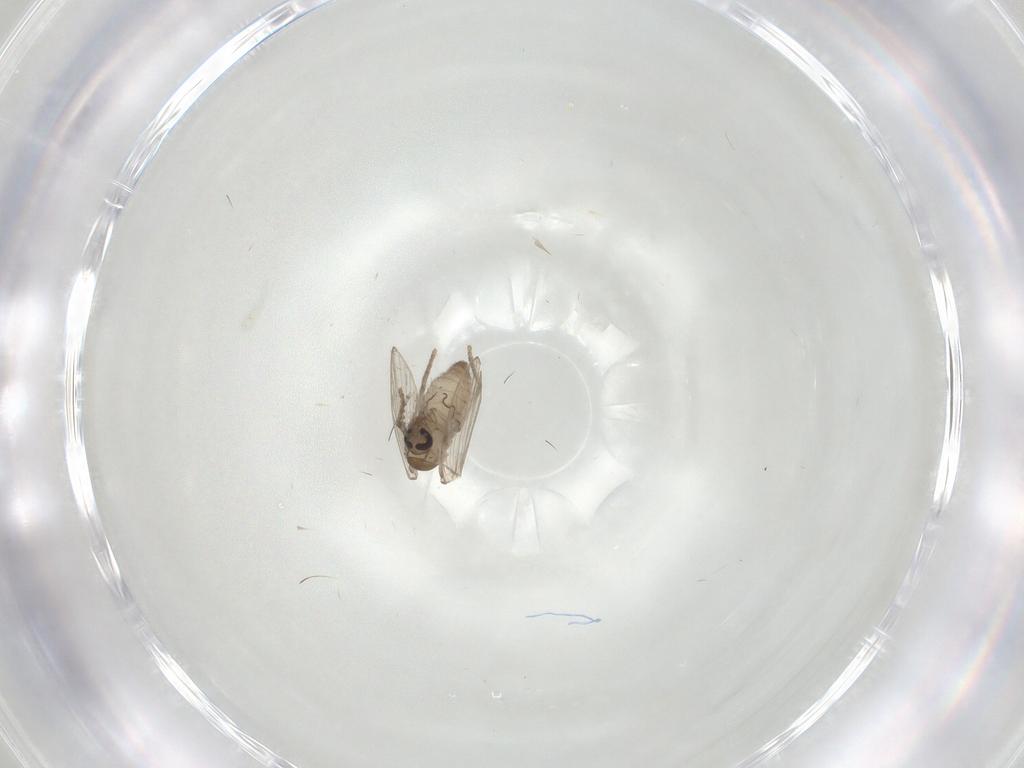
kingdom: Animalia
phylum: Arthropoda
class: Insecta
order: Diptera
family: Psychodidae
